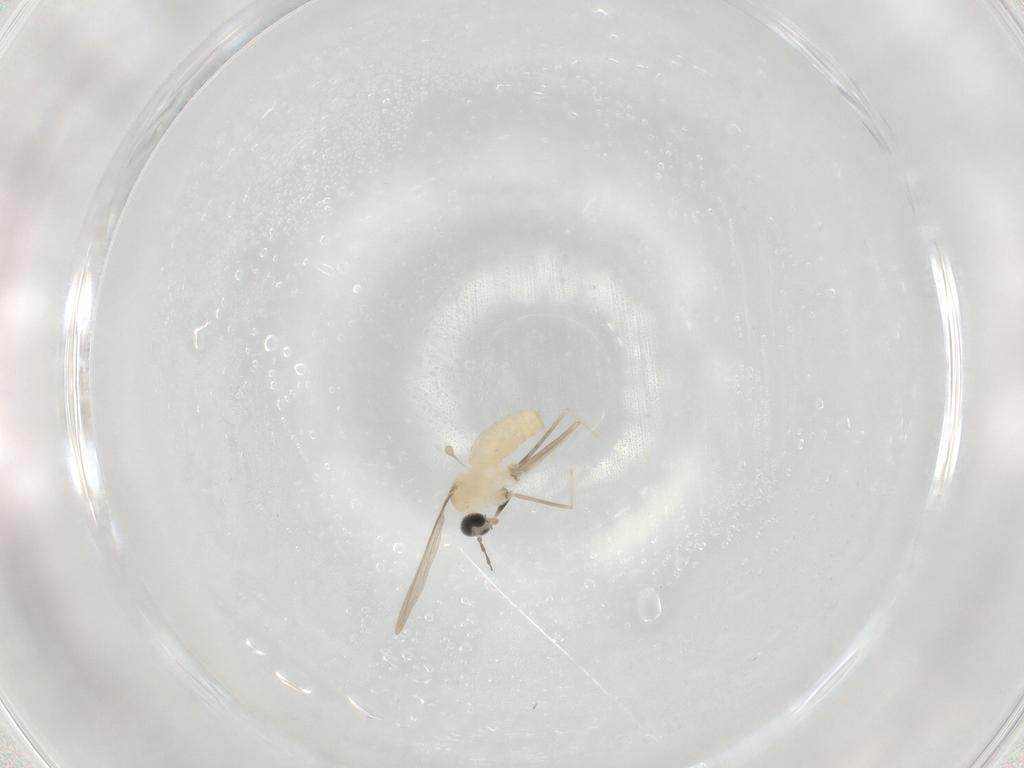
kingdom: Animalia
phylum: Arthropoda
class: Insecta
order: Diptera
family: Cecidomyiidae
